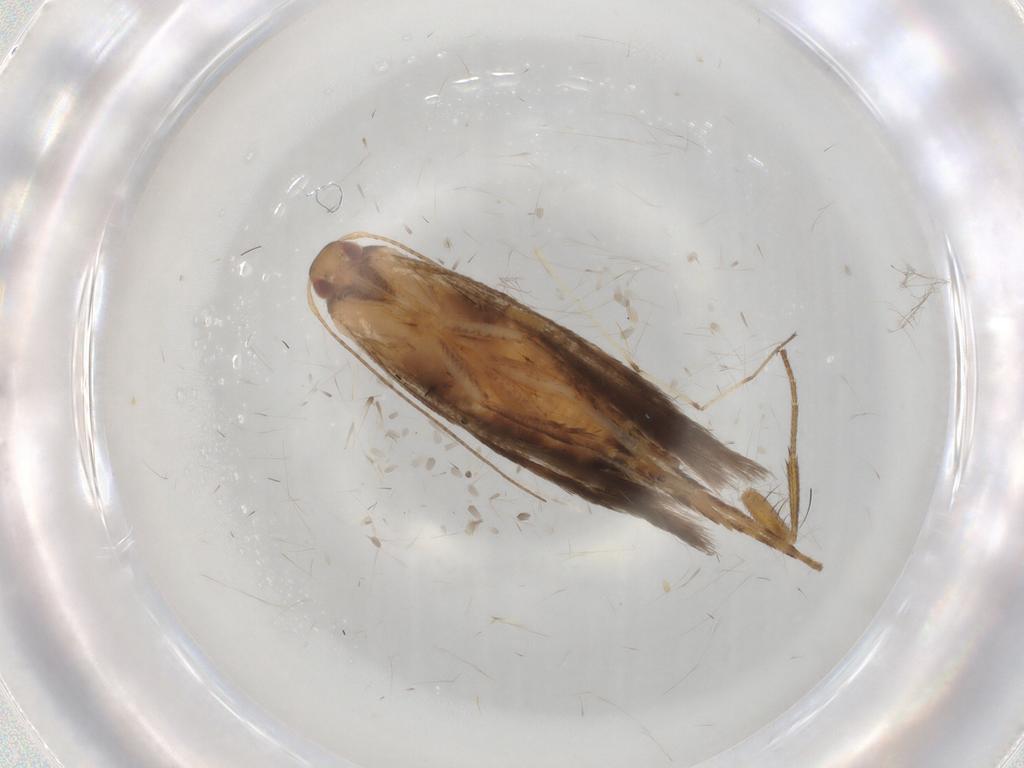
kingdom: Animalia
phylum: Arthropoda
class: Insecta
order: Lepidoptera
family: Gelechiidae
